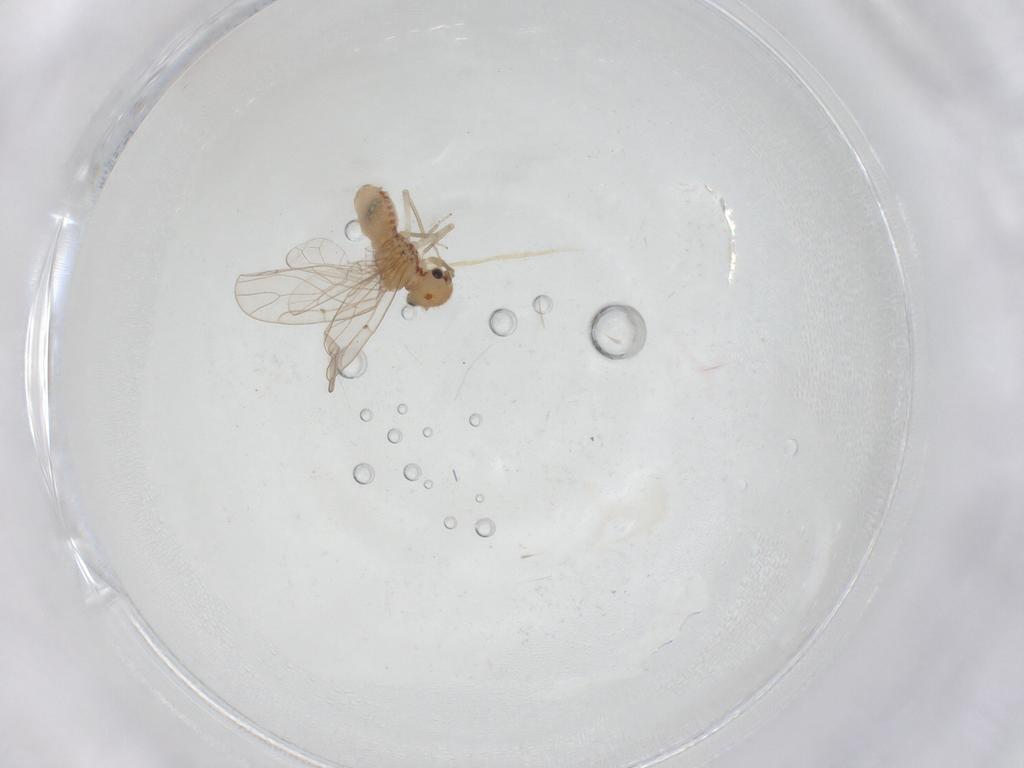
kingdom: Animalia
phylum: Arthropoda
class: Insecta
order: Psocodea
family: Ectopsocidae
